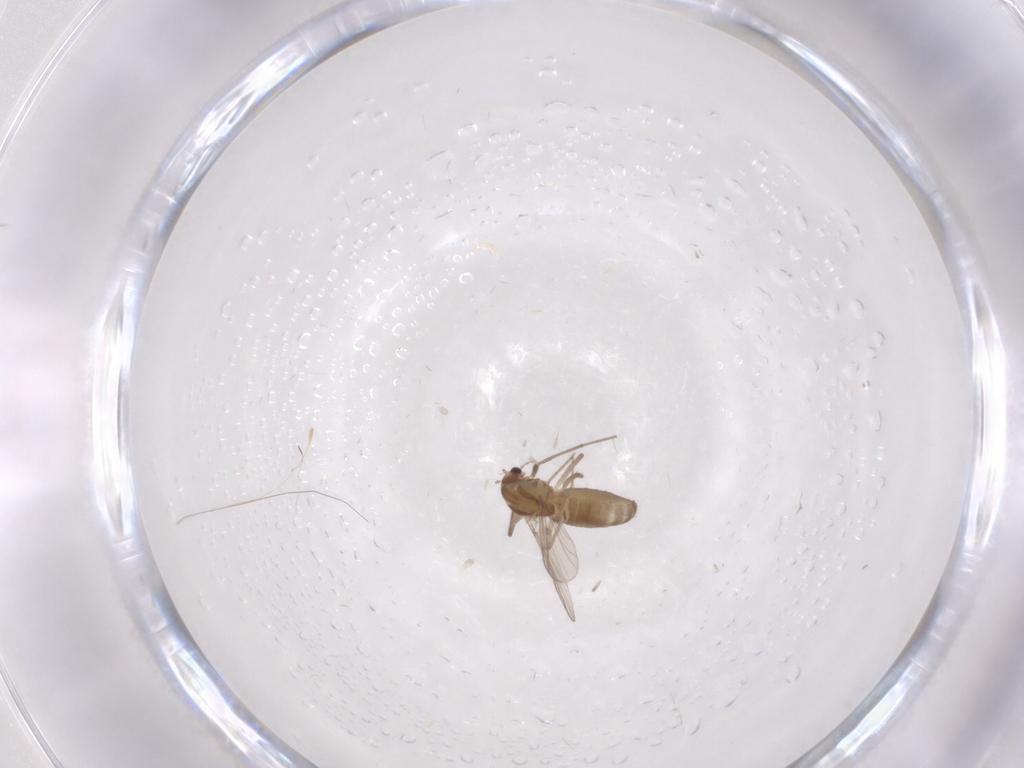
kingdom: Animalia
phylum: Arthropoda
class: Insecta
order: Diptera
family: Chironomidae
